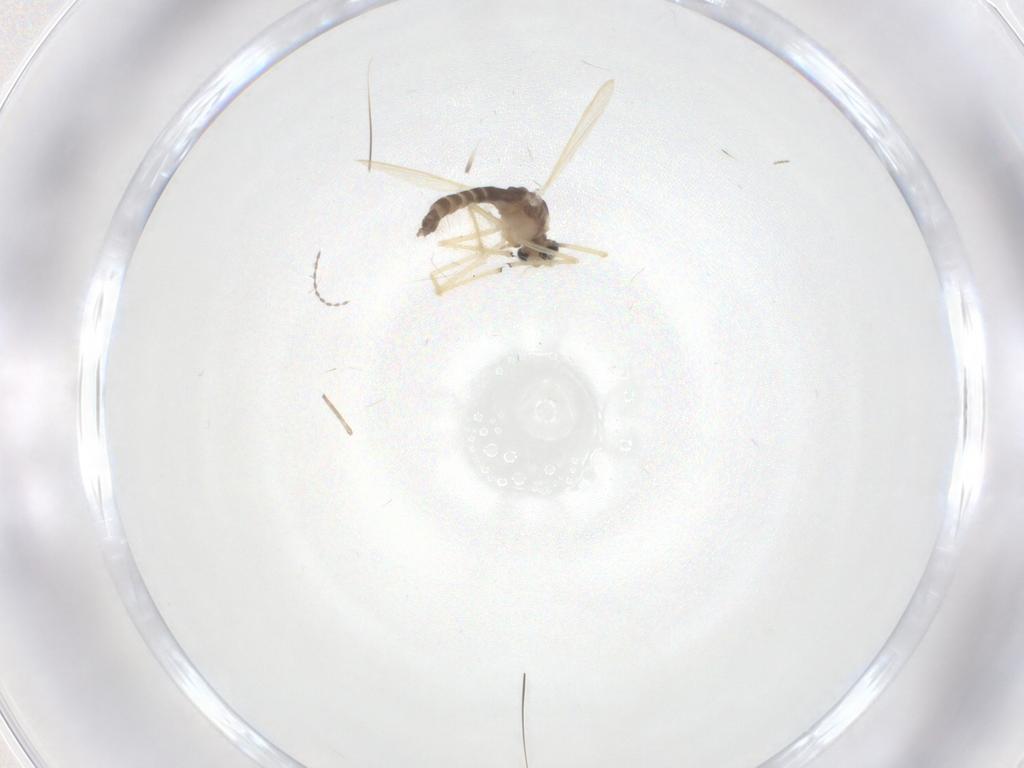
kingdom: Animalia
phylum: Arthropoda
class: Insecta
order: Diptera
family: Chironomidae
